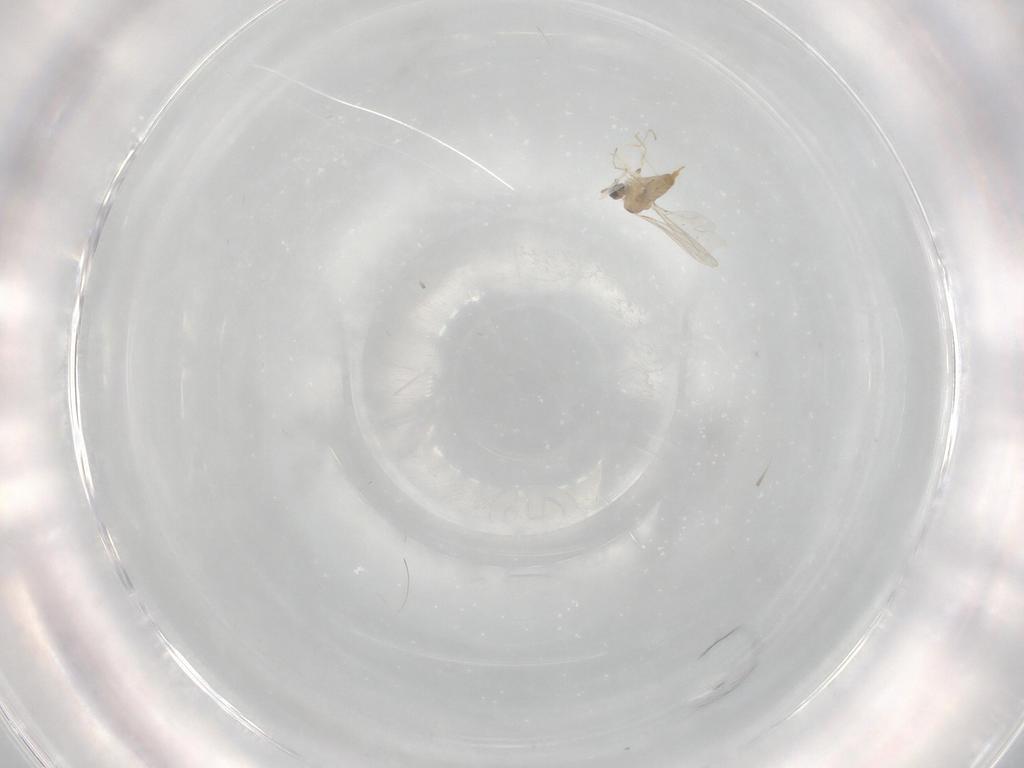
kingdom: Animalia
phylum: Arthropoda
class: Insecta
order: Diptera
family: Cecidomyiidae
